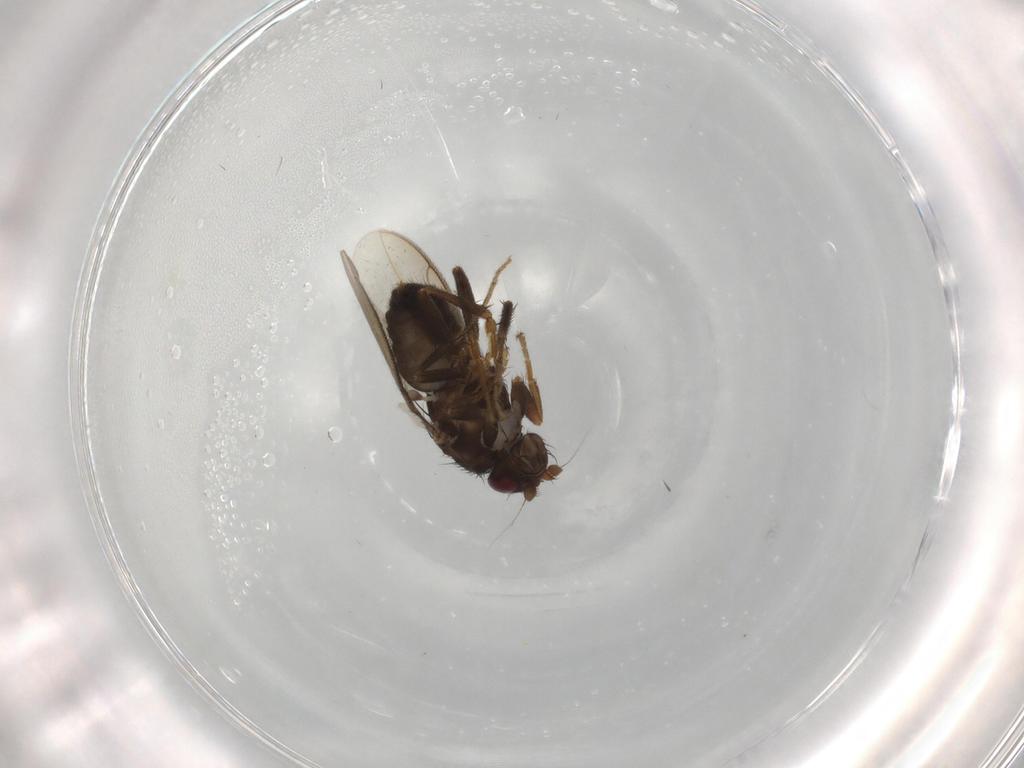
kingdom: Animalia
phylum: Arthropoda
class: Insecta
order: Diptera
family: Sphaeroceridae
